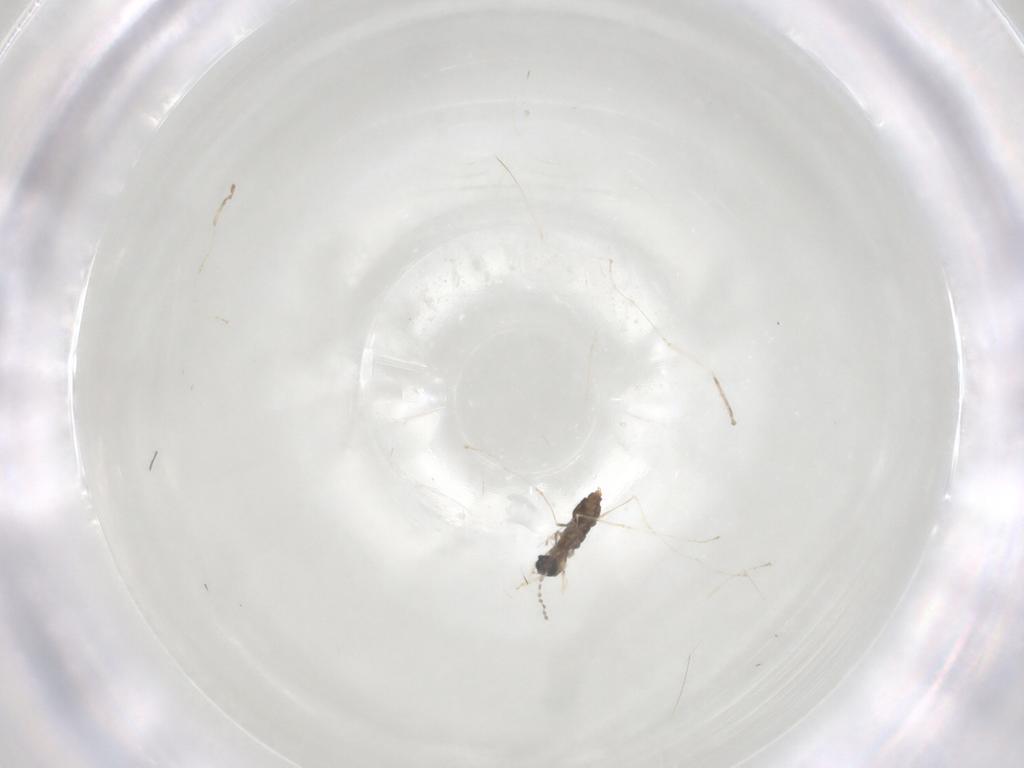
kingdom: Animalia
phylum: Arthropoda
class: Insecta
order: Diptera
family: Cecidomyiidae
